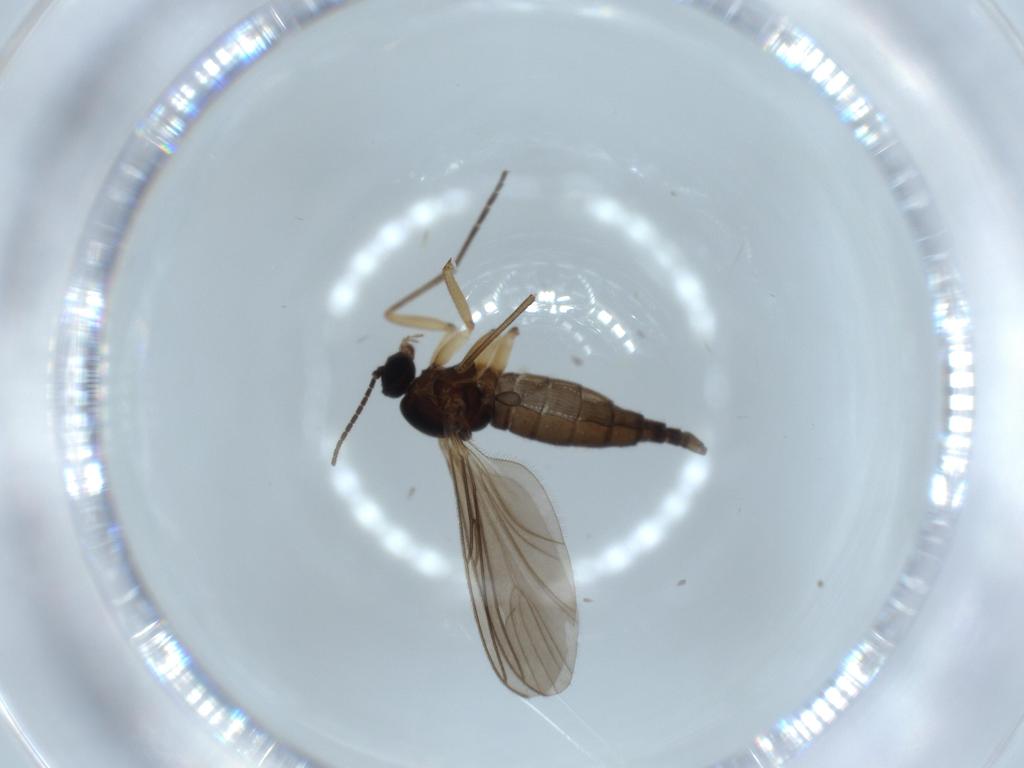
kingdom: Animalia
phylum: Arthropoda
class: Insecta
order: Diptera
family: Sciaridae
